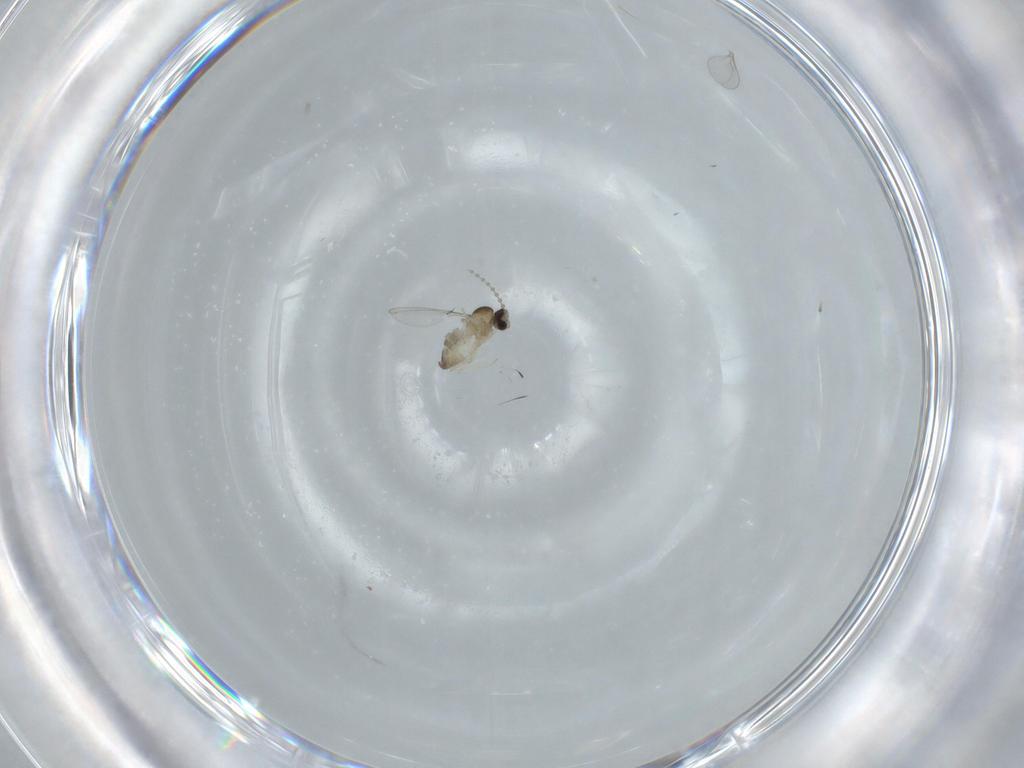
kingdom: Animalia
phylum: Arthropoda
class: Insecta
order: Diptera
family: Cecidomyiidae
